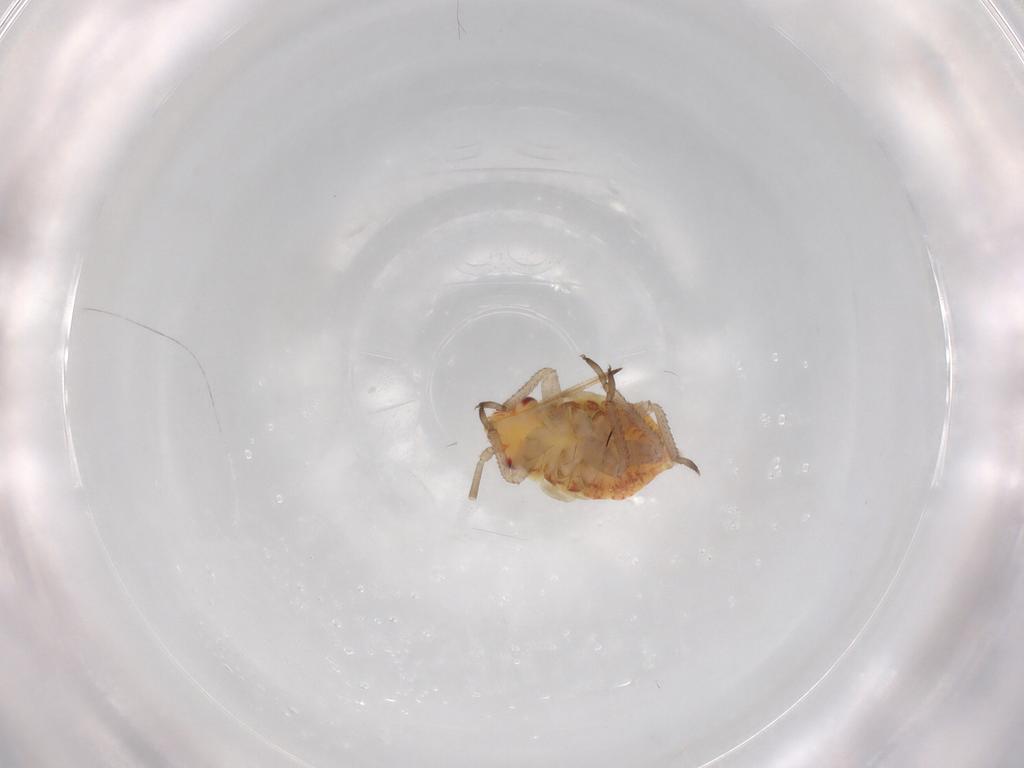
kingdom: Animalia
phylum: Arthropoda
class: Insecta
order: Hemiptera
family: Miridae
